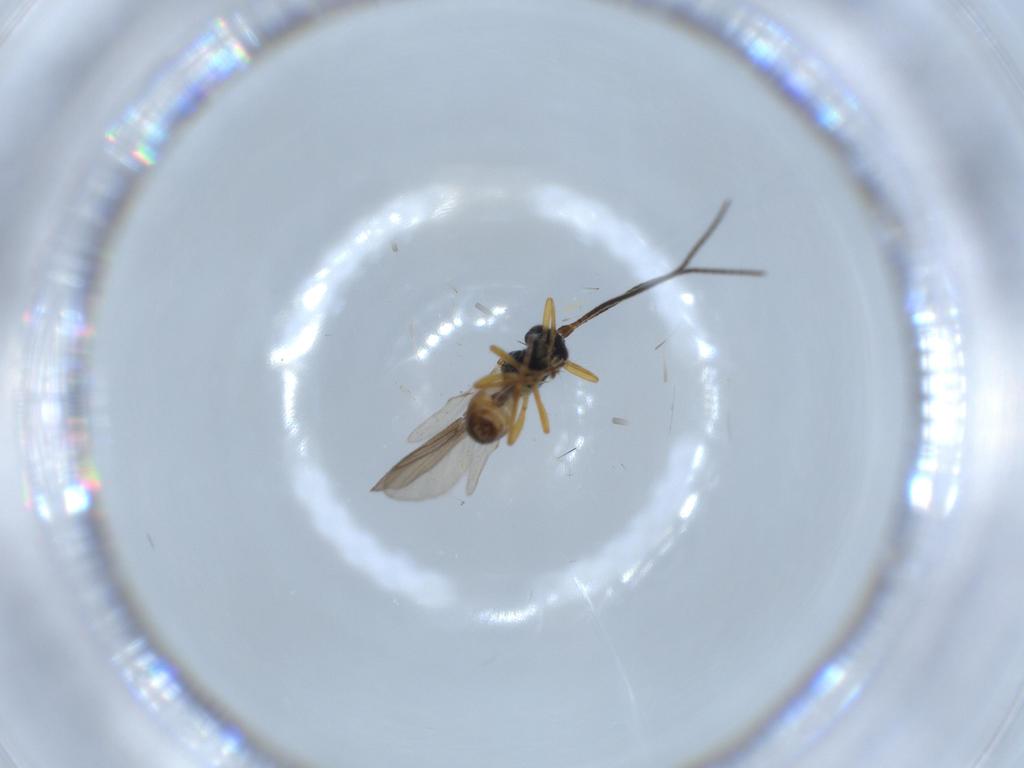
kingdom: Animalia
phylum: Arthropoda
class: Insecta
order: Hymenoptera
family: Braconidae
